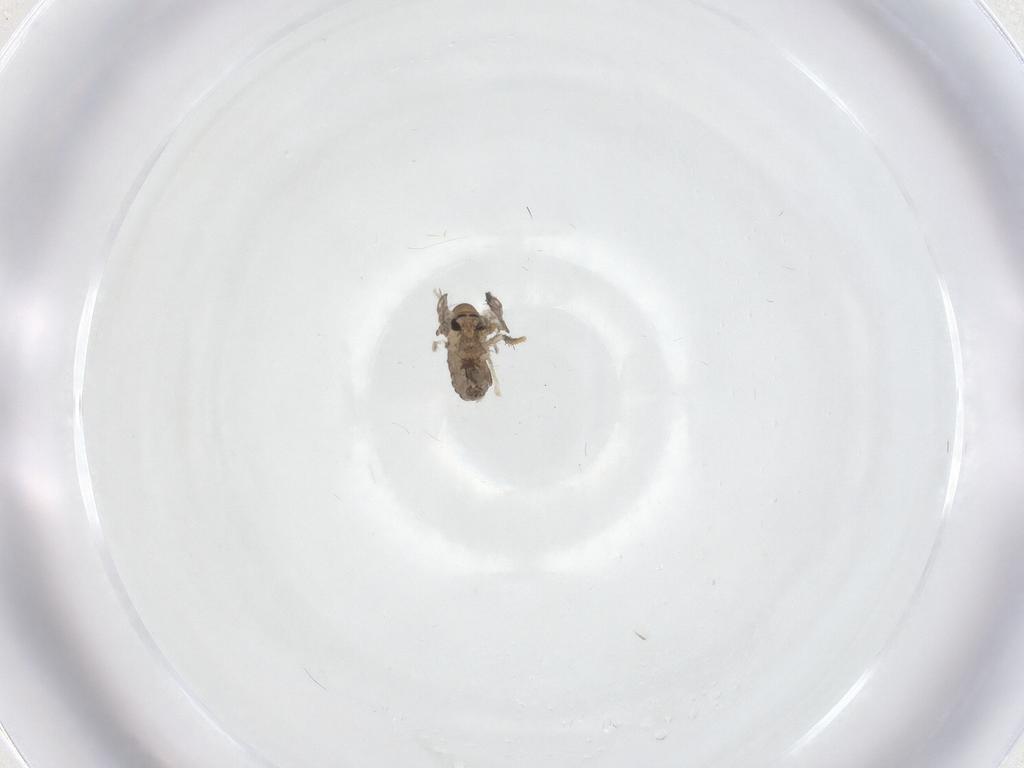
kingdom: Animalia
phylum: Arthropoda
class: Insecta
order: Diptera
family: Psychodidae
